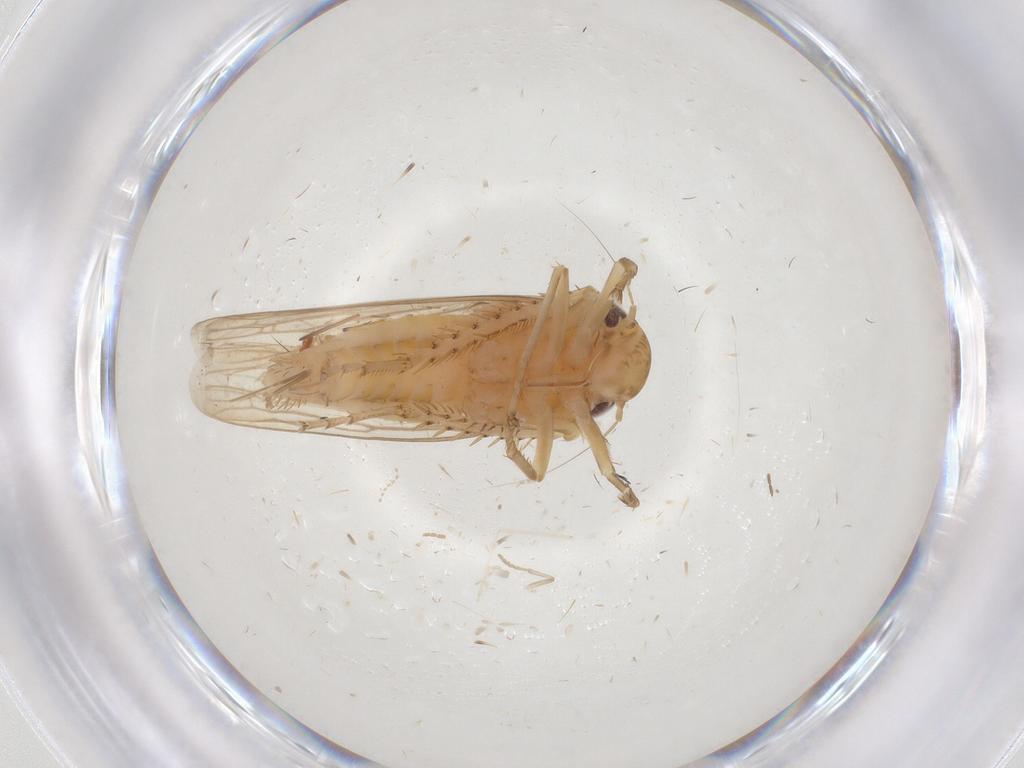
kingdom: Animalia
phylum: Arthropoda
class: Insecta
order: Hemiptera
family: Cicadellidae
